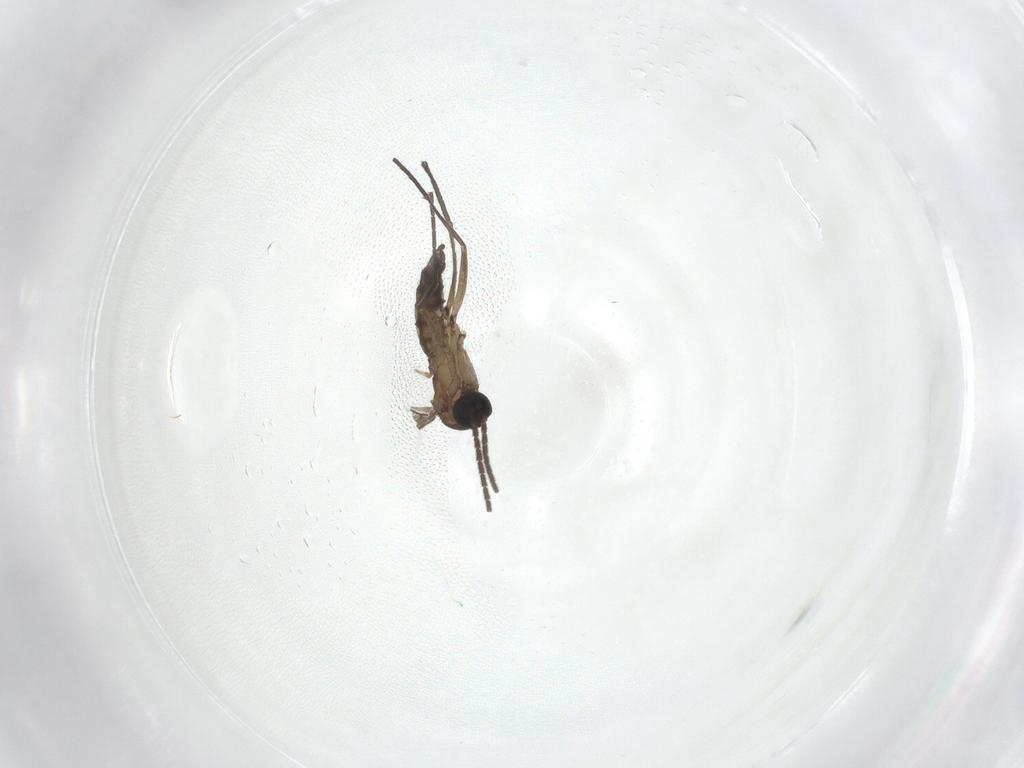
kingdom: Animalia
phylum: Arthropoda
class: Insecta
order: Diptera
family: Sciaridae
